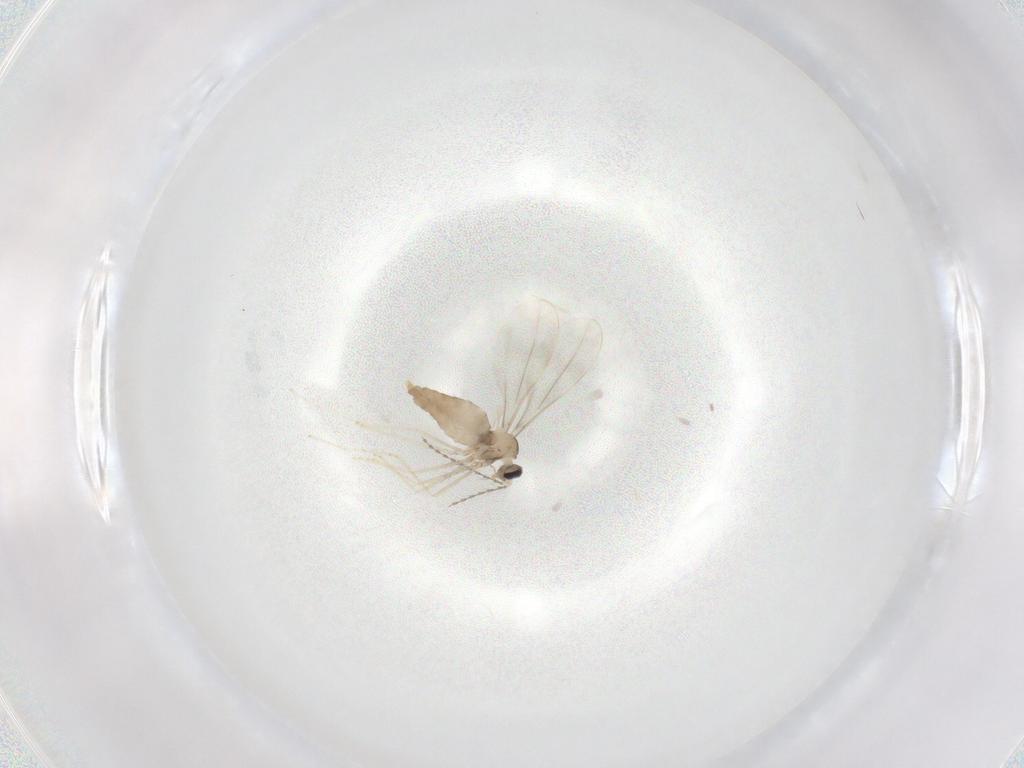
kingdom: Animalia
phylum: Arthropoda
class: Insecta
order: Diptera
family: Cecidomyiidae
